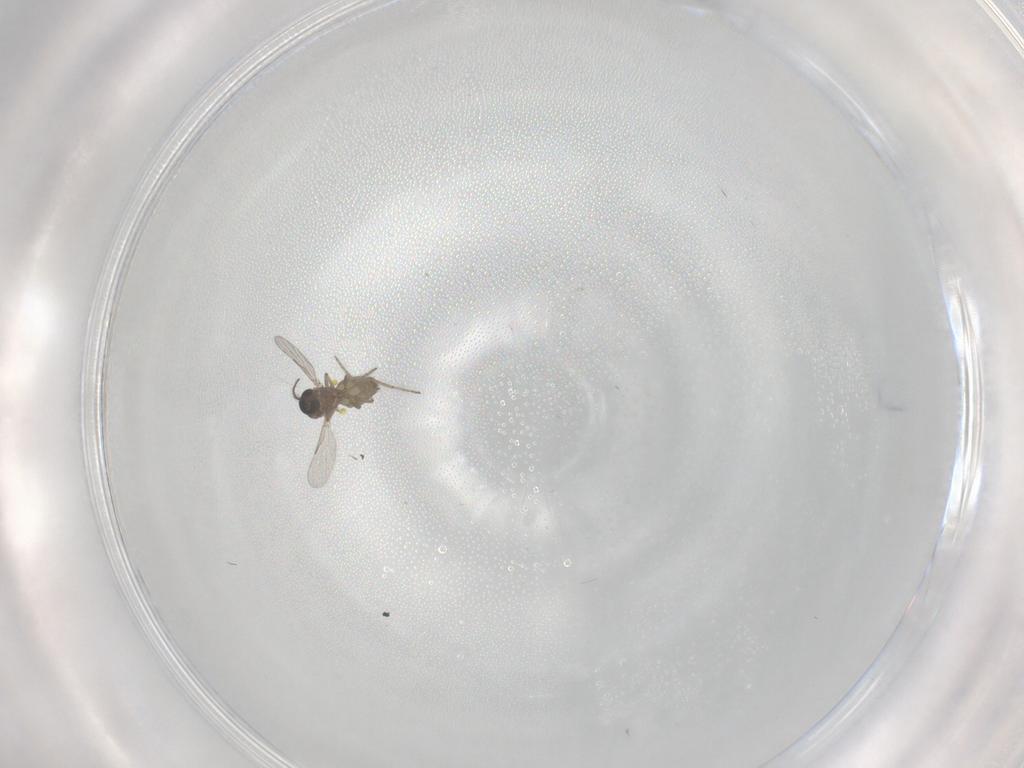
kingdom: Animalia
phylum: Arthropoda
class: Insecta
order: Diptera
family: Ceratopogonidae
